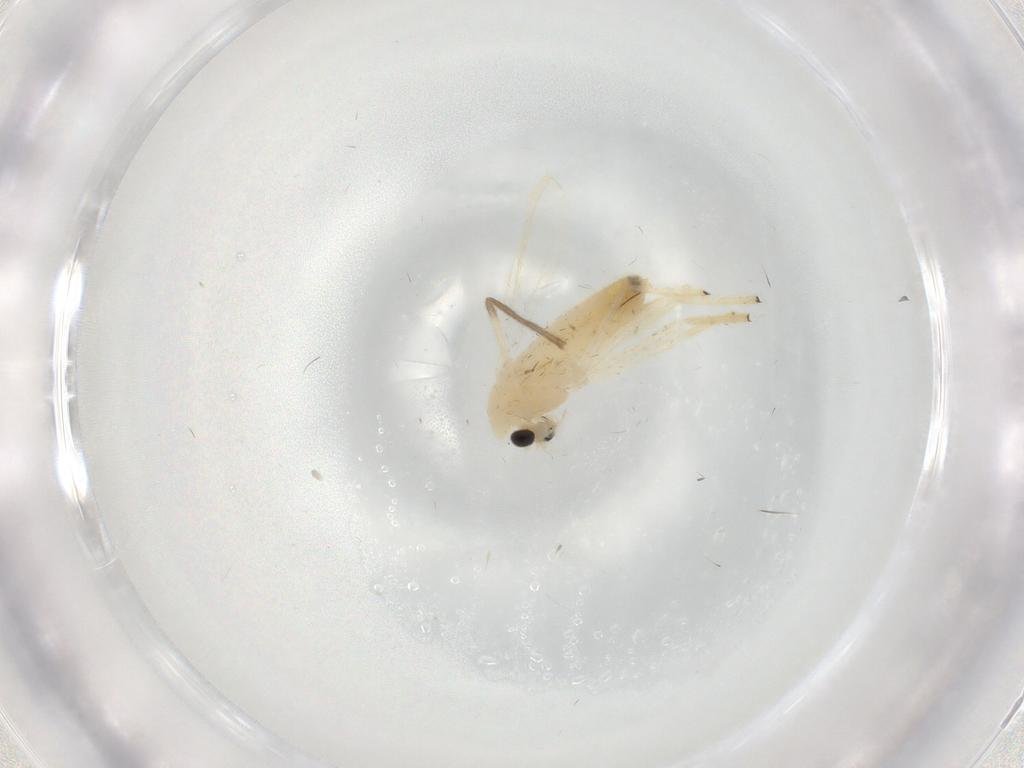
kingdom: Animalia
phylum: Arthropoda
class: Insecta
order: Diptera
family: Chironomidae
